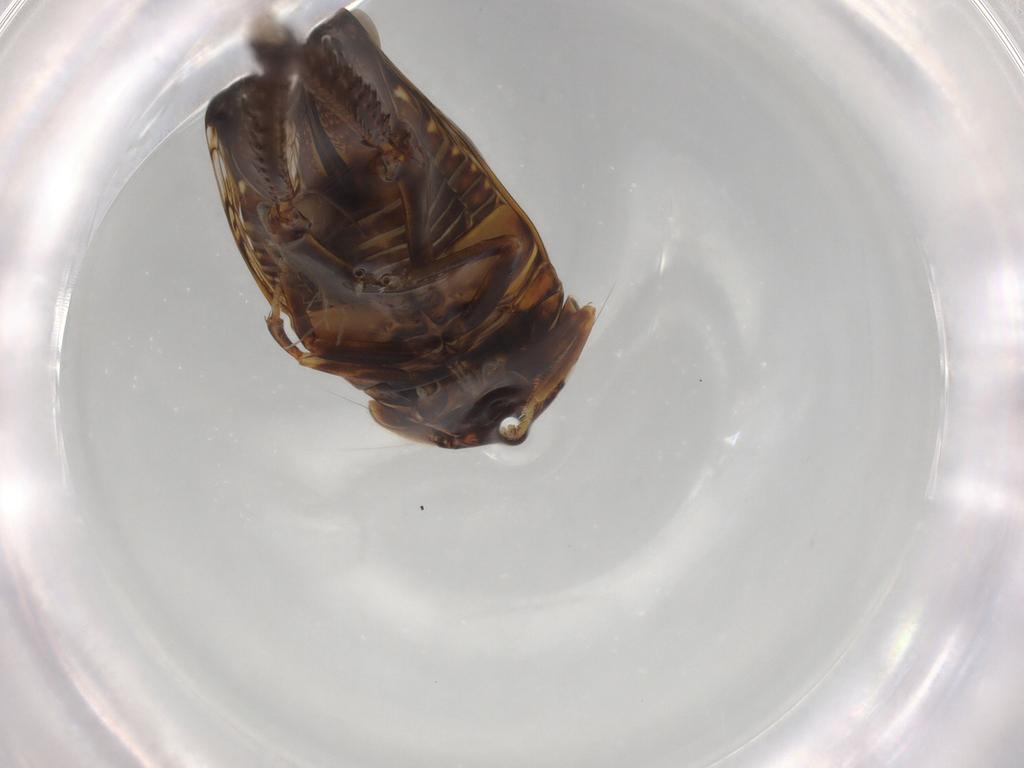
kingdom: Animalia
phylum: Arthropoda
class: Insecta
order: Hemiptera
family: Cicadellidae
